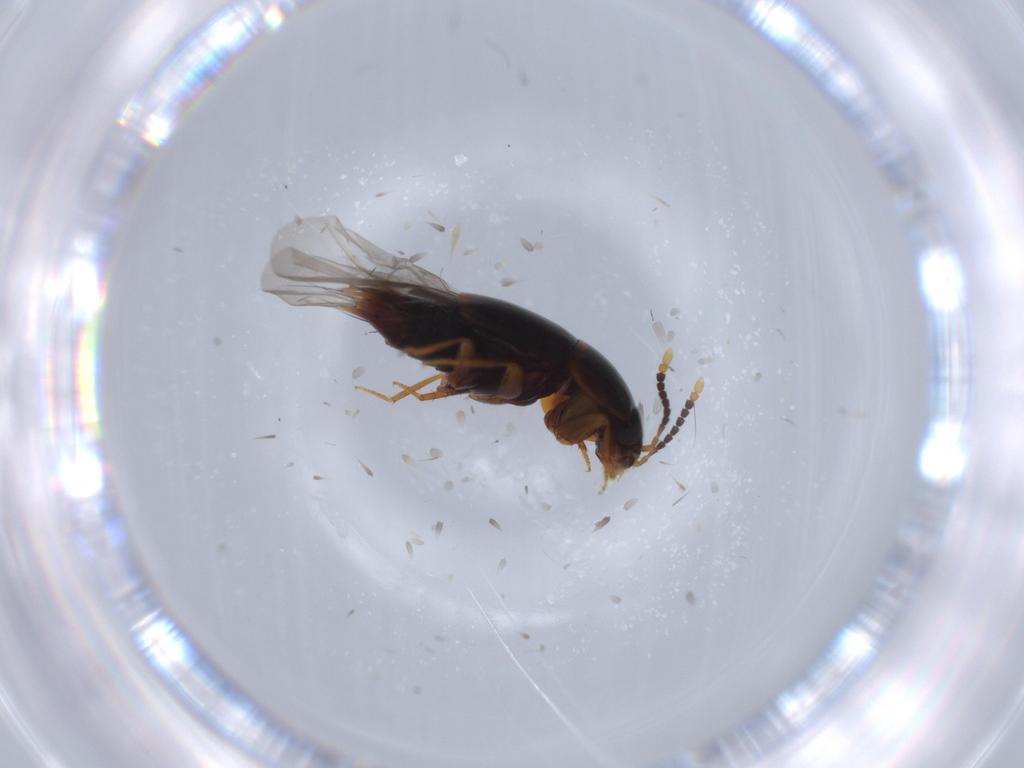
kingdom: Animalia
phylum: Arthropoda
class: Insecta
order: Coleoptera
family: Staphylinidae
